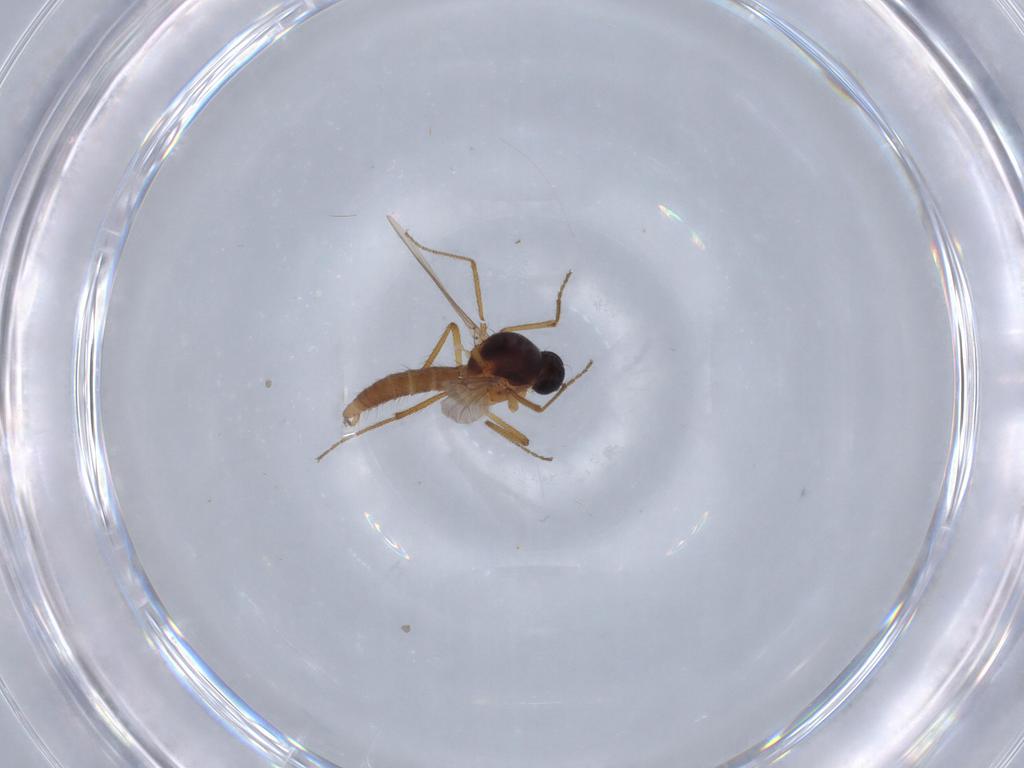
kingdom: Animalia
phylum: Arthropoda
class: Insecta
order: Diptera
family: Ceratopogonidae
